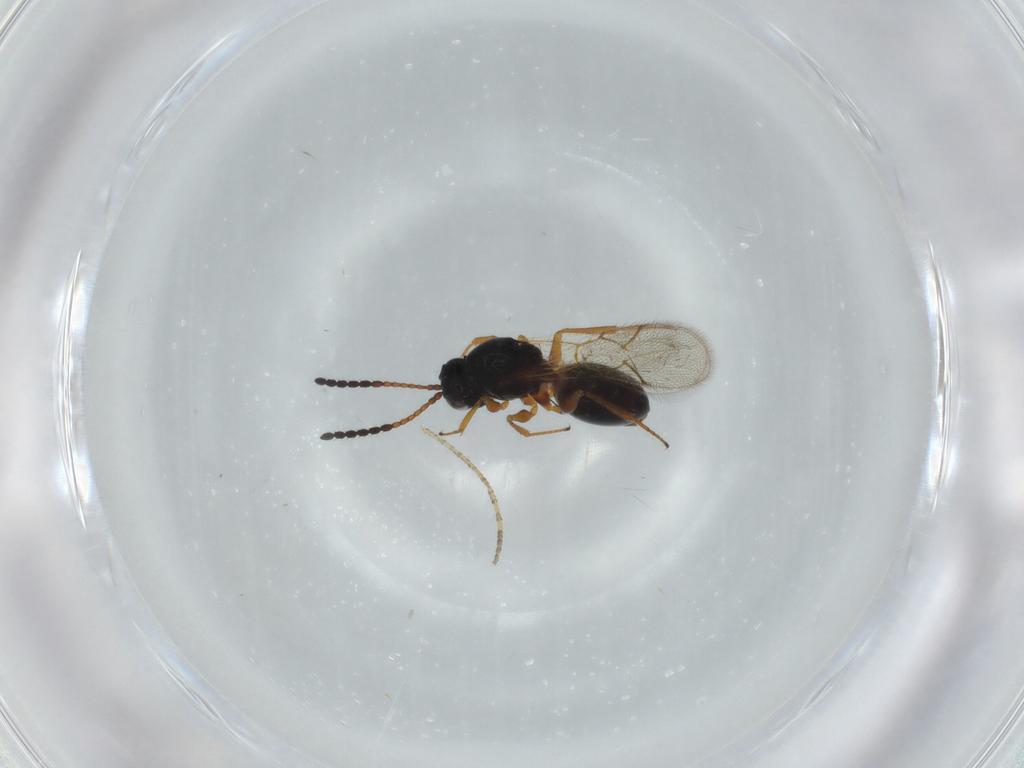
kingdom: Animalia
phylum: Arthropoda
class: Insecta
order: Hymenoptera
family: Figitidae
